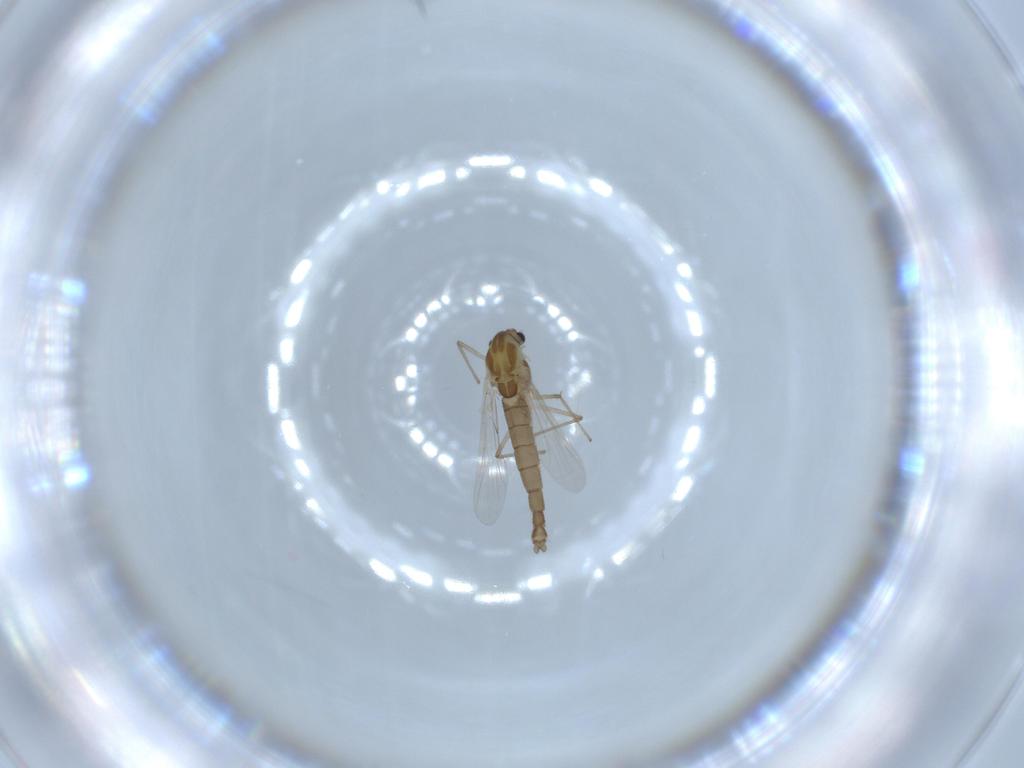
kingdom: Animalia
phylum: Arthropoda
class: Insecta
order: Diptera
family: Chironomidae
